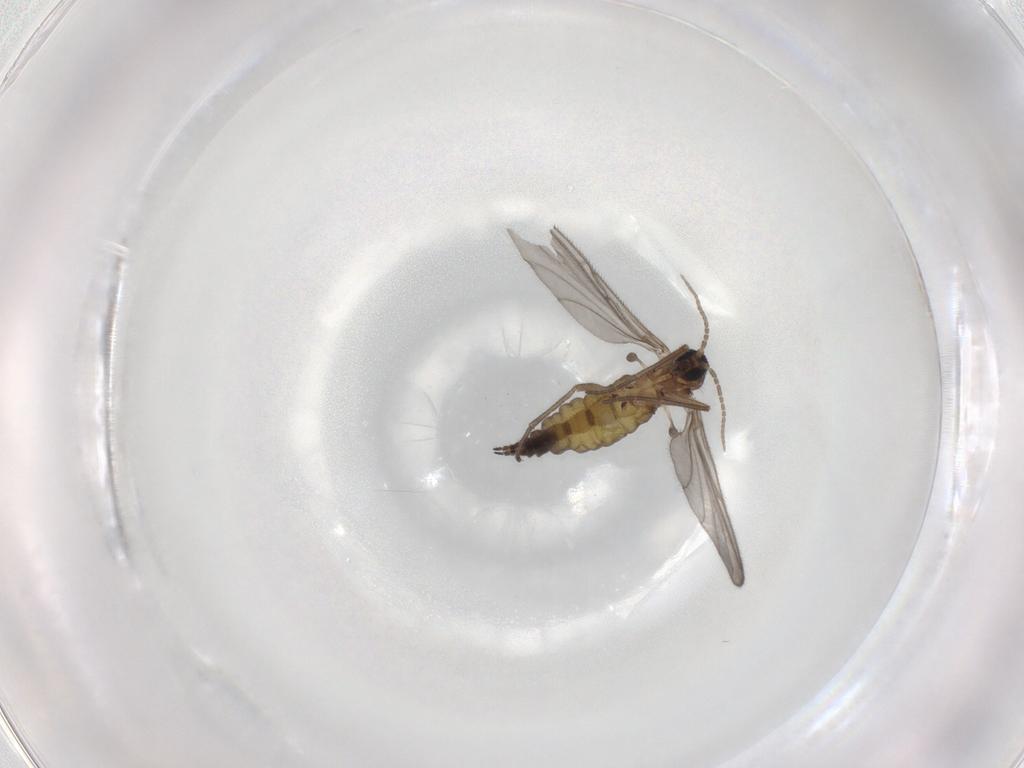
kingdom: Animalia
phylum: Arthropoda
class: Insecta
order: Diptera
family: Sciaridae
